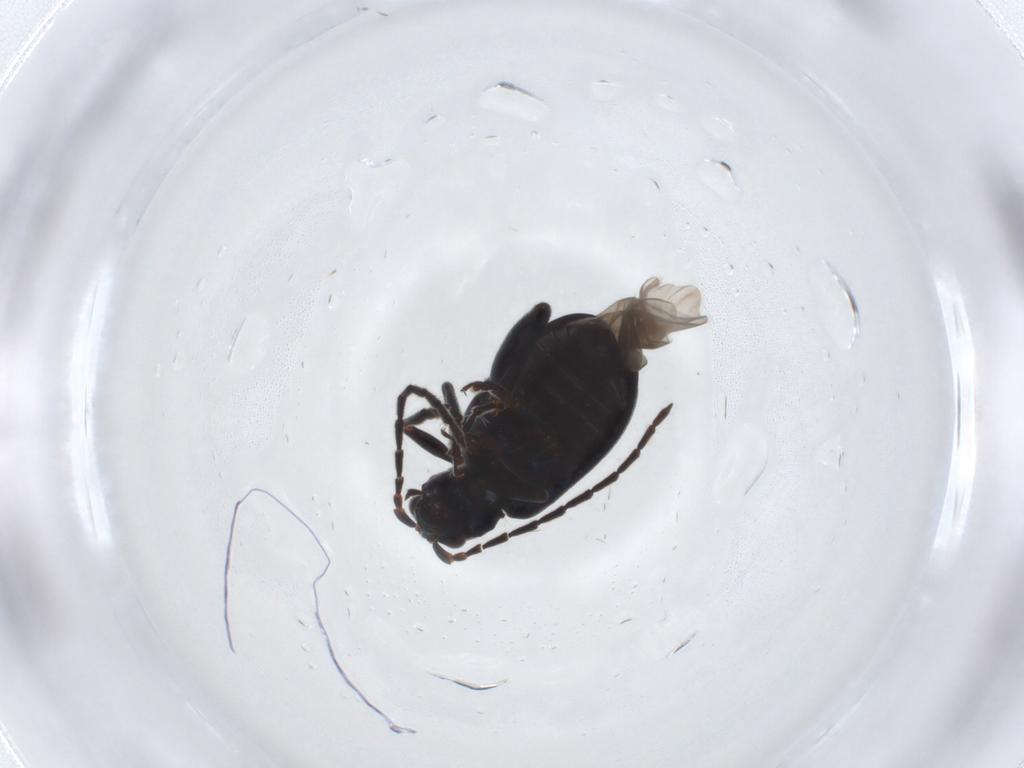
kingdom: Animalia
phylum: Arthropoda
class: Insecta
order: Coleoptera
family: Chrysomelidae
